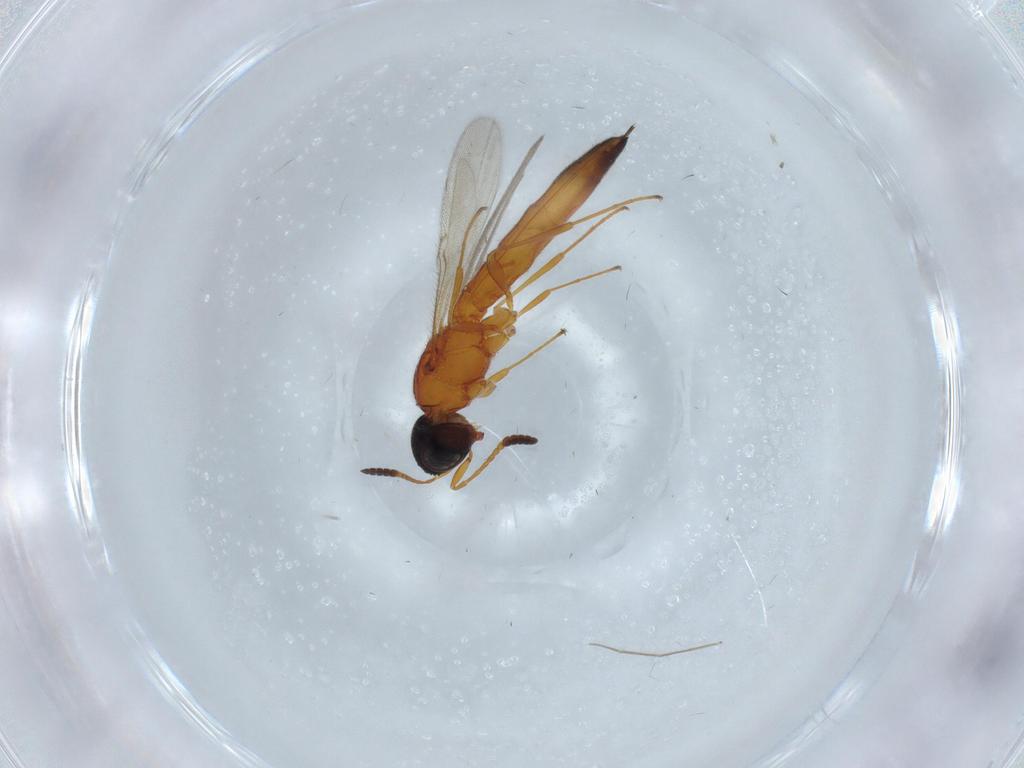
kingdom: Animalia
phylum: Arthropoda
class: Insecta
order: Hymenoptera
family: Scelionidae
